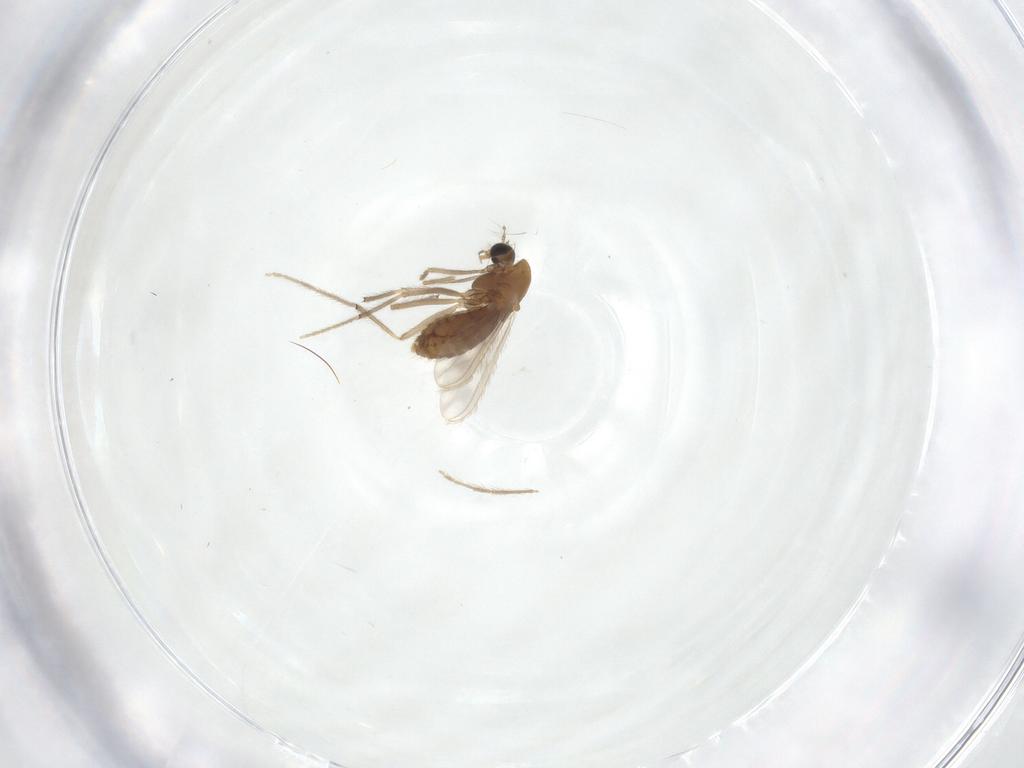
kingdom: Animalia
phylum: Arthropoda
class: Insecta
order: Diptera
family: Chironomidae
